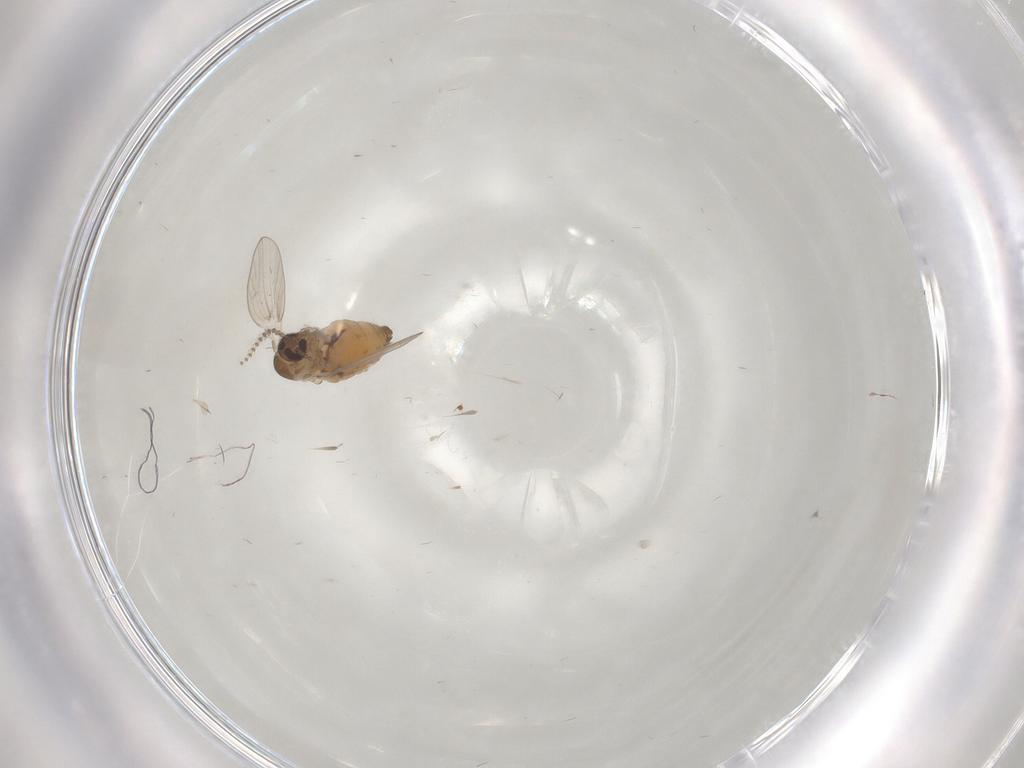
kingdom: Animalia
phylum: Arthropoda
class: Insecta
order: Diptera
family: Psychodidae
